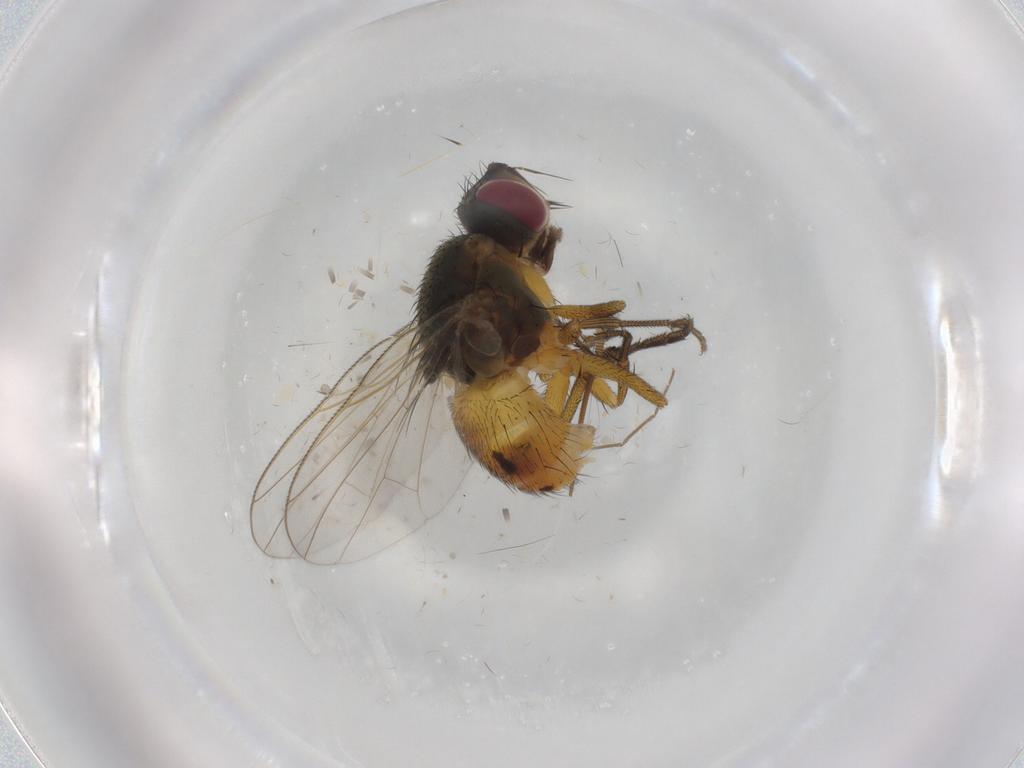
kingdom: Animalia
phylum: Arthropoda
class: Insecta
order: Diptera
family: Muscidae
